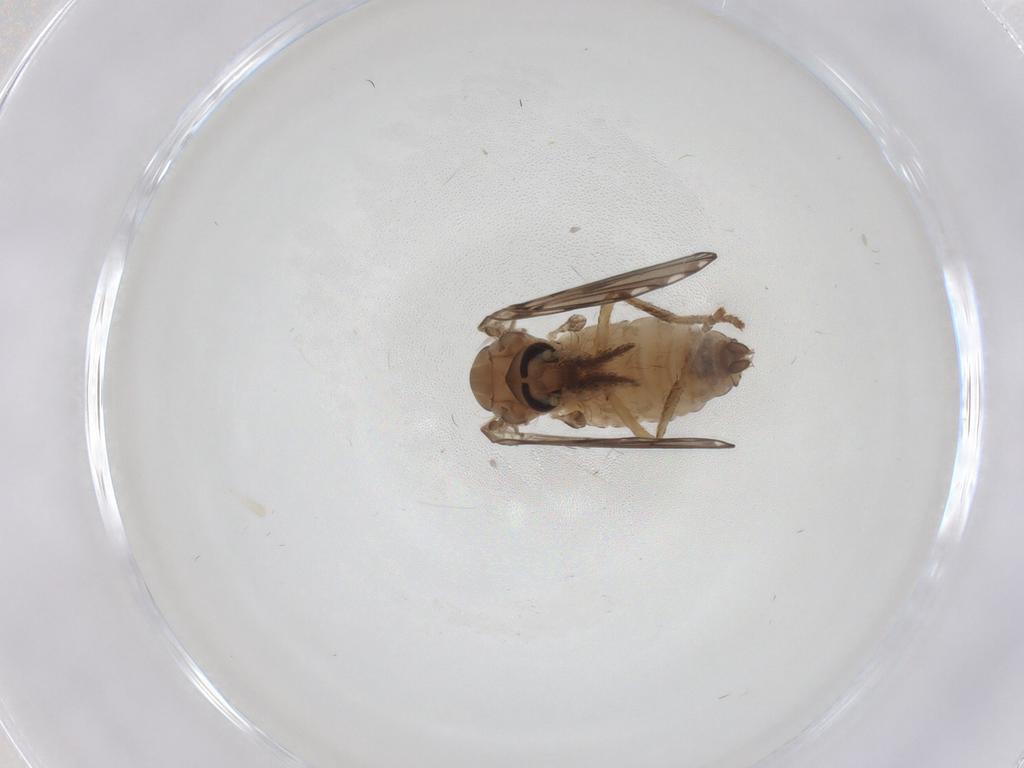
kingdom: Animalia
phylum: Arthropoda
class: Insecta
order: Diptera
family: Psychodidae
